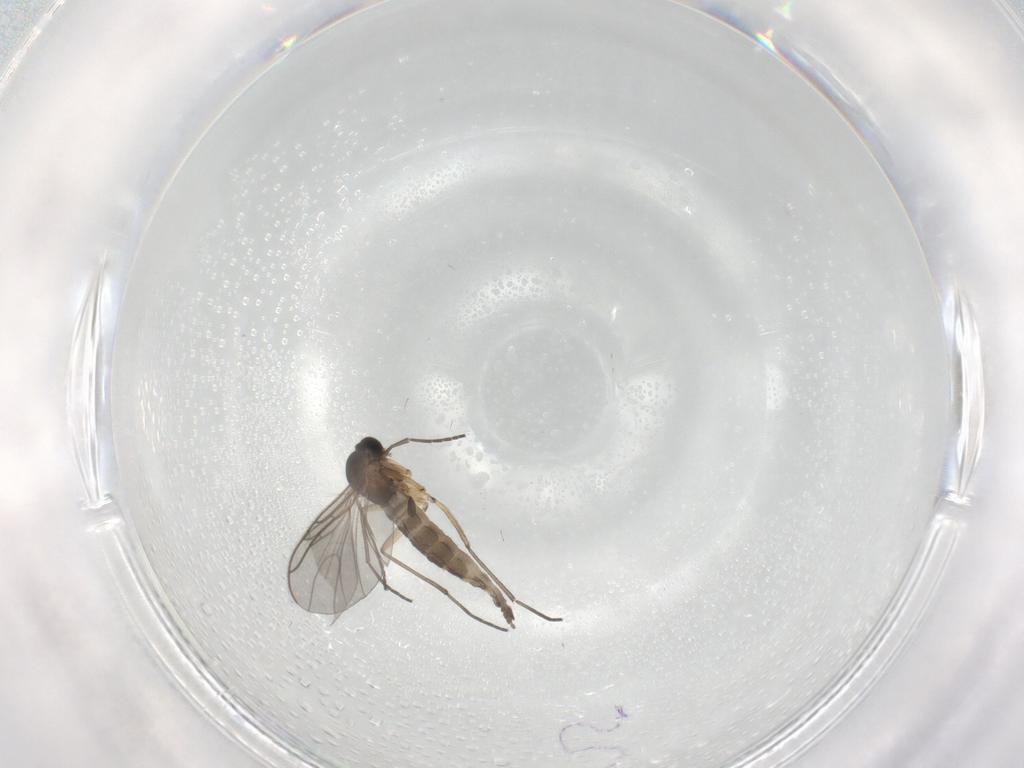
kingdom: Animalia
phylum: Arthropoda
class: Insecta
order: Diptera
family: Sciaridae
